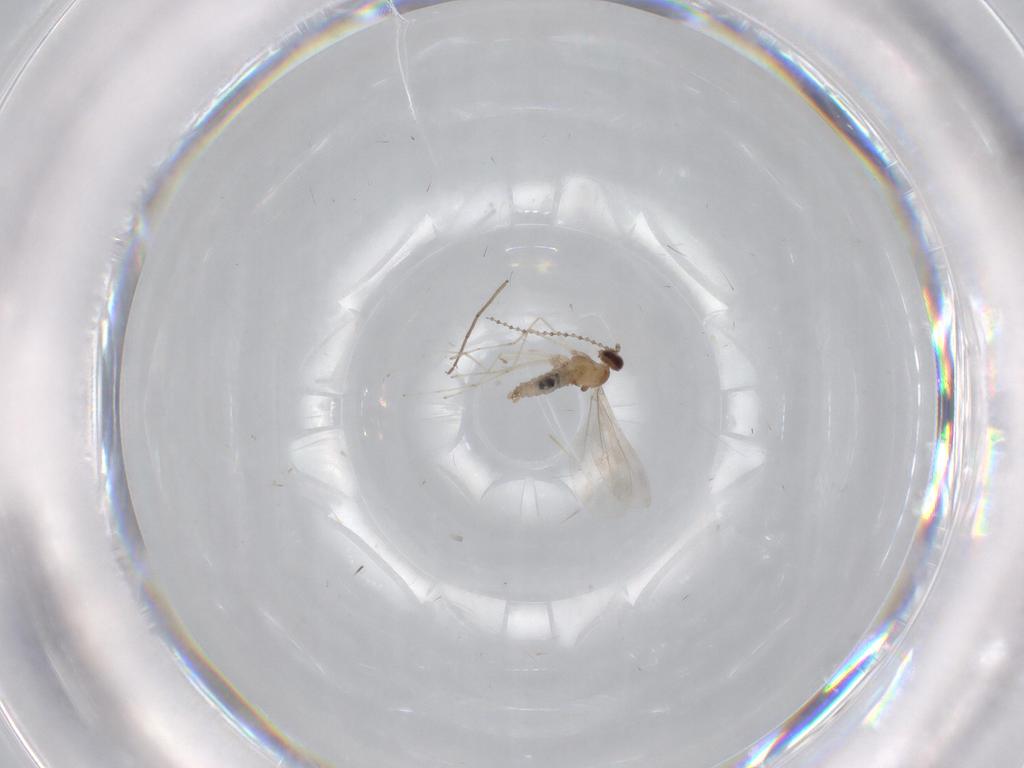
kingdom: Animalia
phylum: Arthropoda
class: Insecta
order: Diptera
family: Chironomidae
